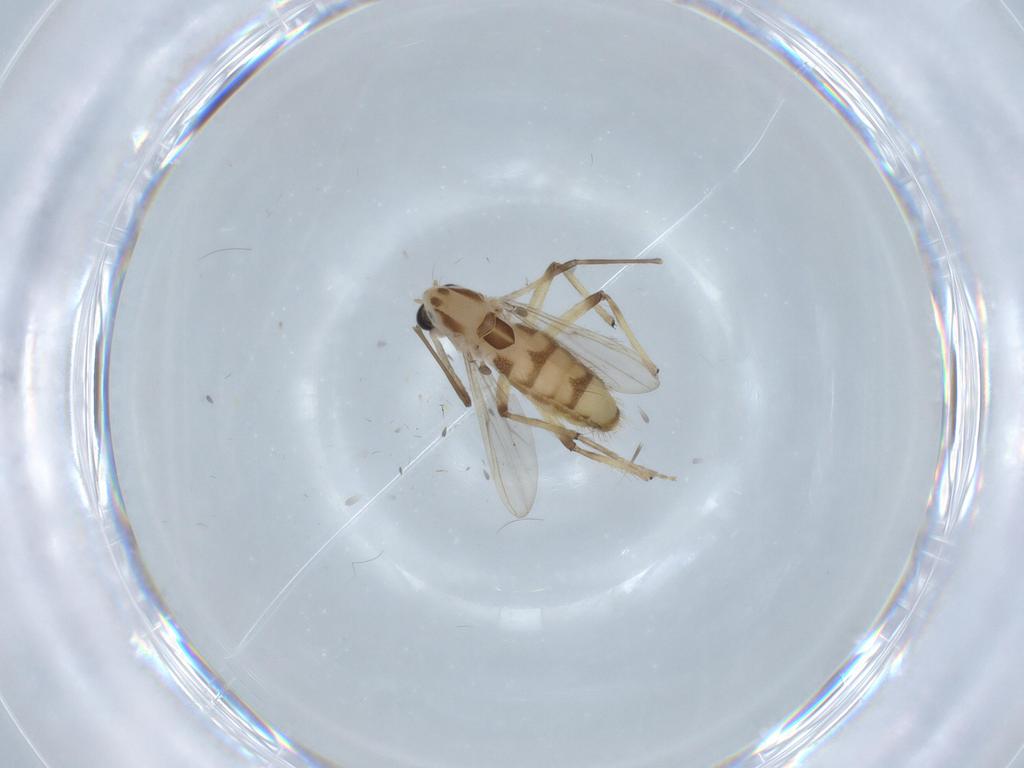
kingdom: Animalia
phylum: Arthropoda
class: Insecta
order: Diptera
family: Chironomidae
